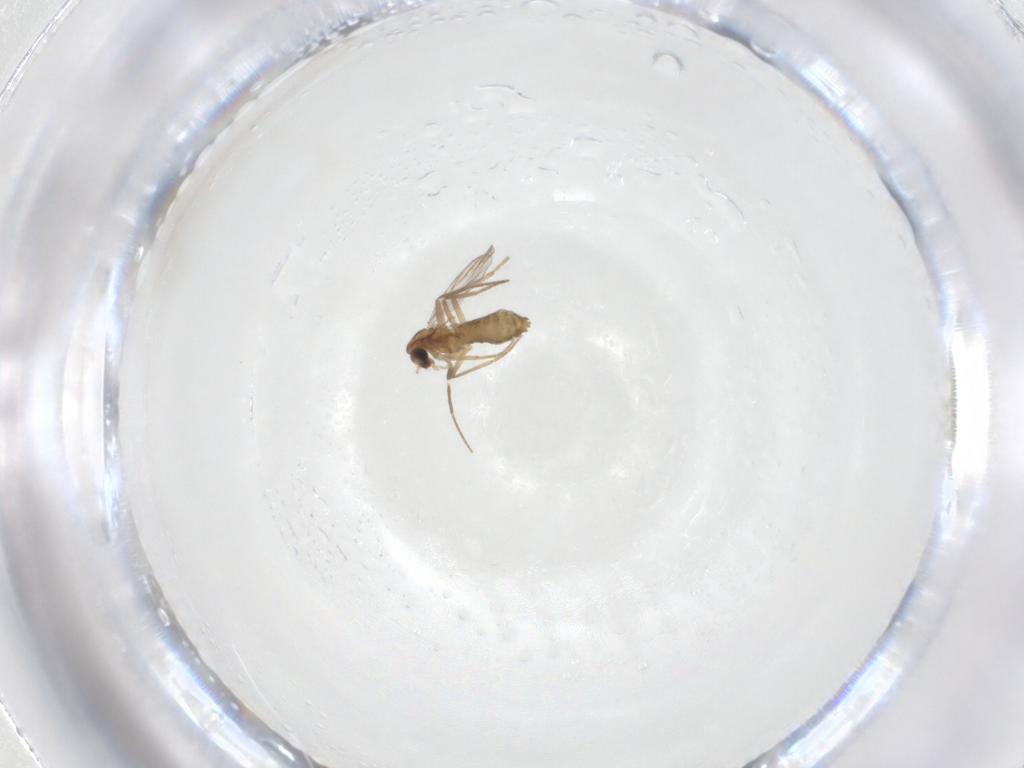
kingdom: Animalia
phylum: Arthropoda
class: Insecta
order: Diptera
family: Chironomidae
